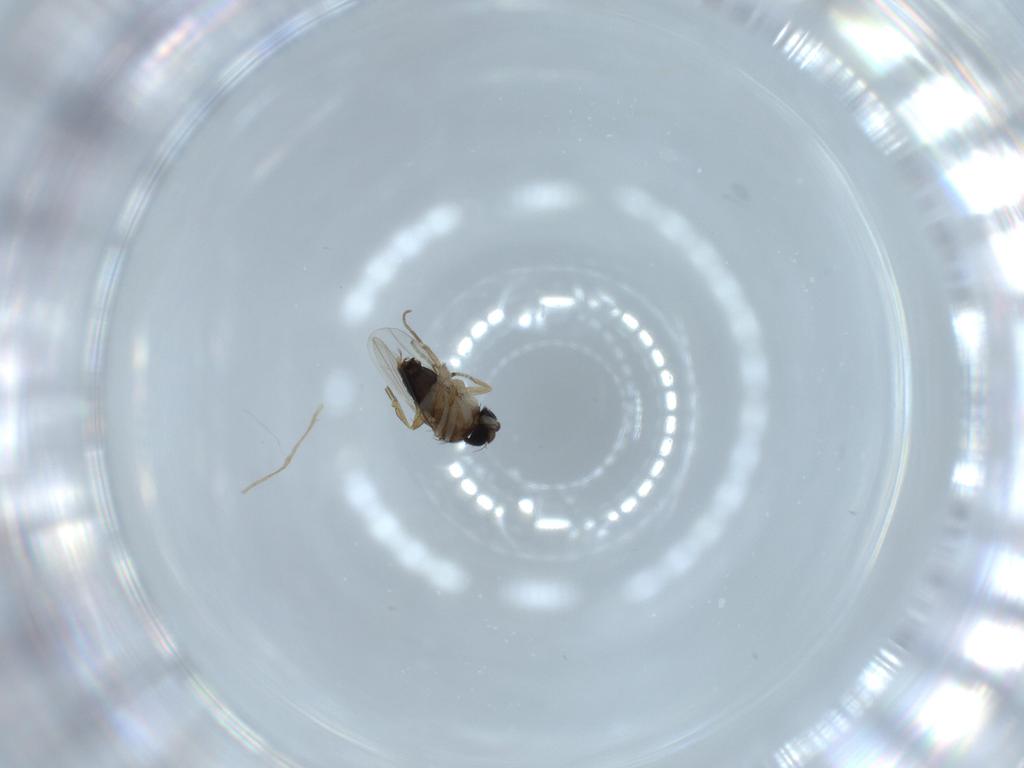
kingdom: Animalia
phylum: Arthropoda
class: Insecta
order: Diptera
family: Phoridae
